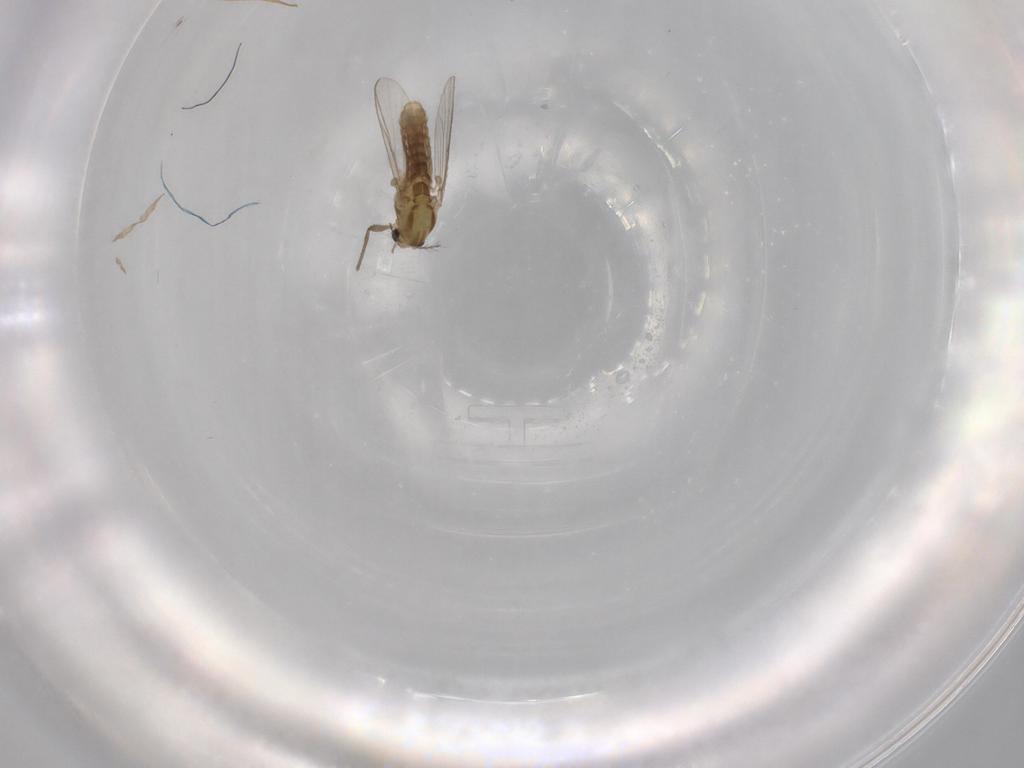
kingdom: Animalia
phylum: Arthropoda
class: Insecta
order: Diptera
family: Chironomidae
